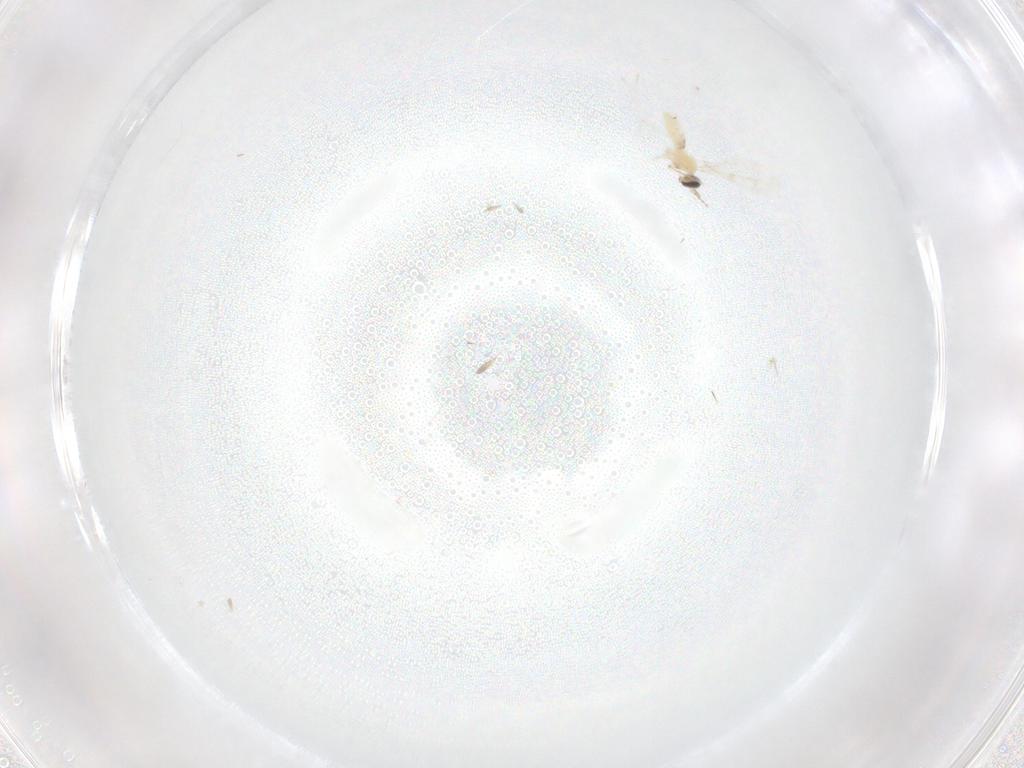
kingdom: Animalia
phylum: Arthropoda
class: Insecta
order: Diptera
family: Cecidomyiidae
